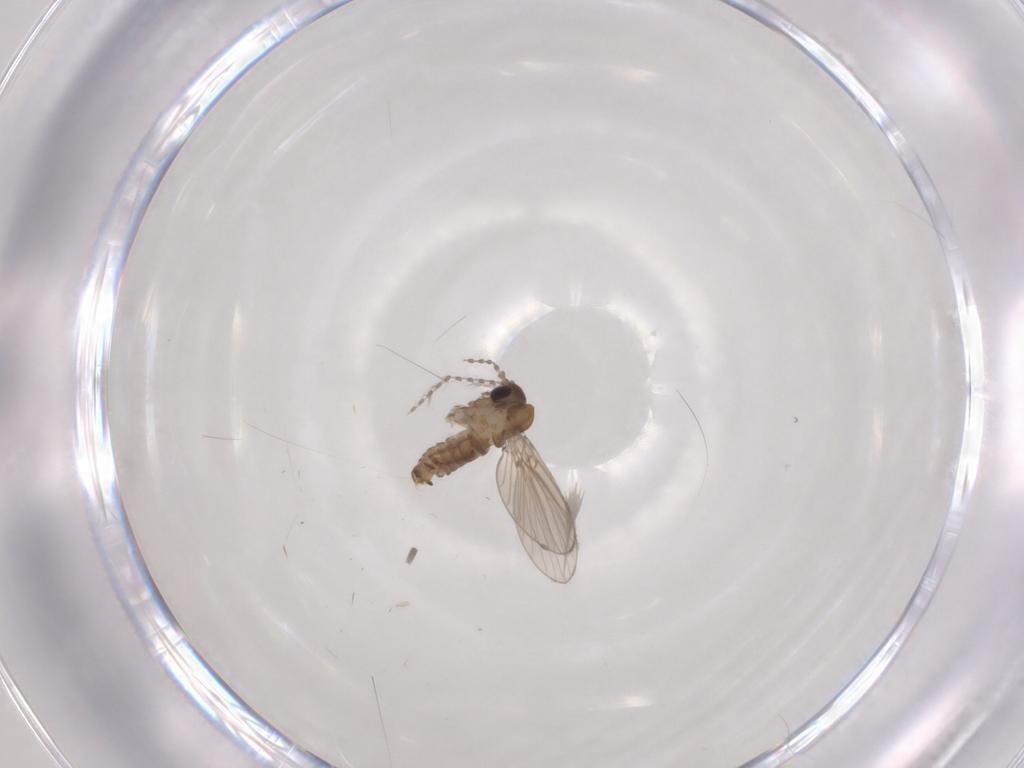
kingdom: Animalia
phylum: Arthropoda
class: Insecta
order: Diptera
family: Psychodidae
